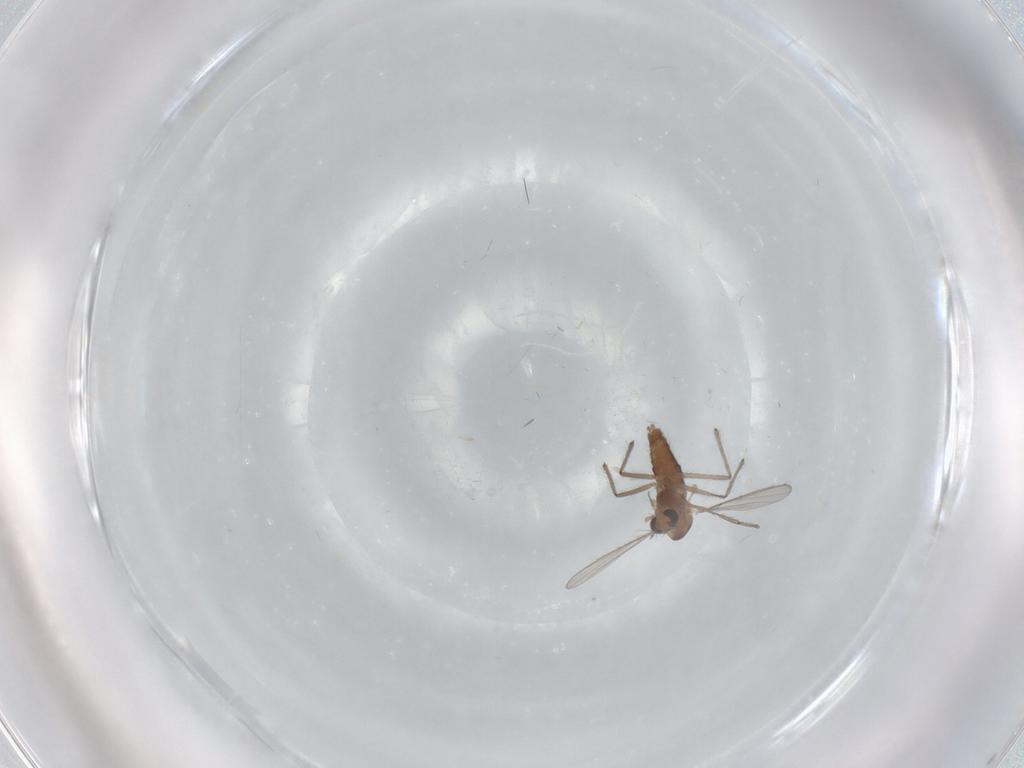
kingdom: Animalia
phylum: Arthropoda
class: Insecta
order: Diptera
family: Chironomidae
